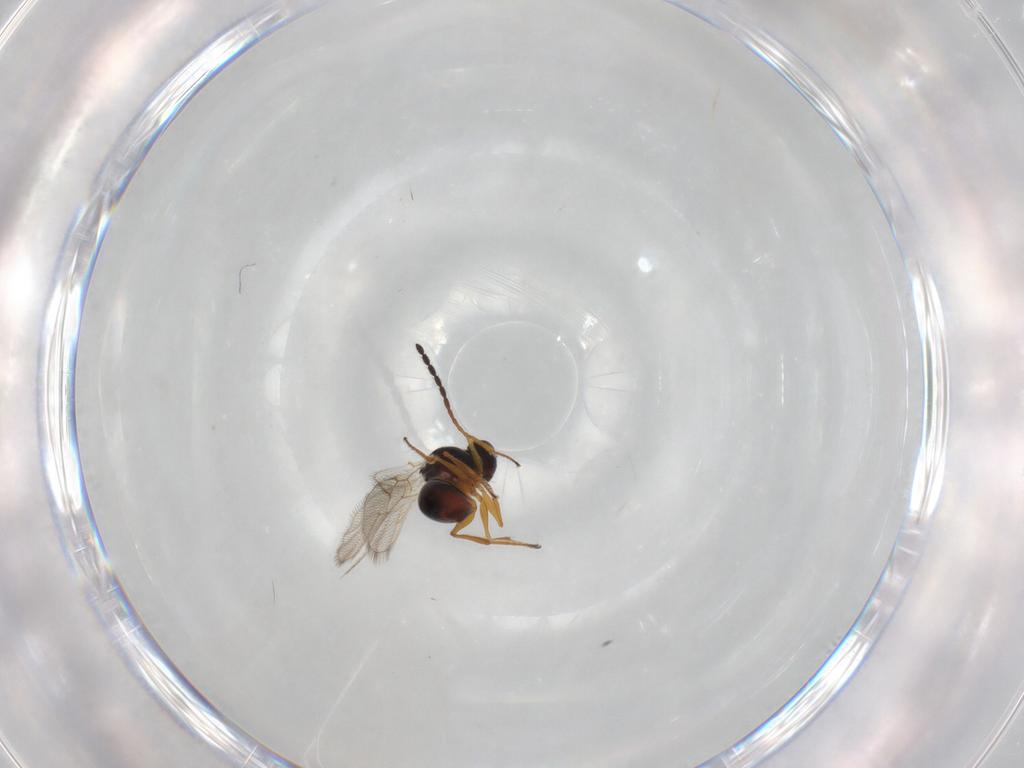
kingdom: Animalia
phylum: Arthropoda
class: Insecta
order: Hymenoptera
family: Figitidae
